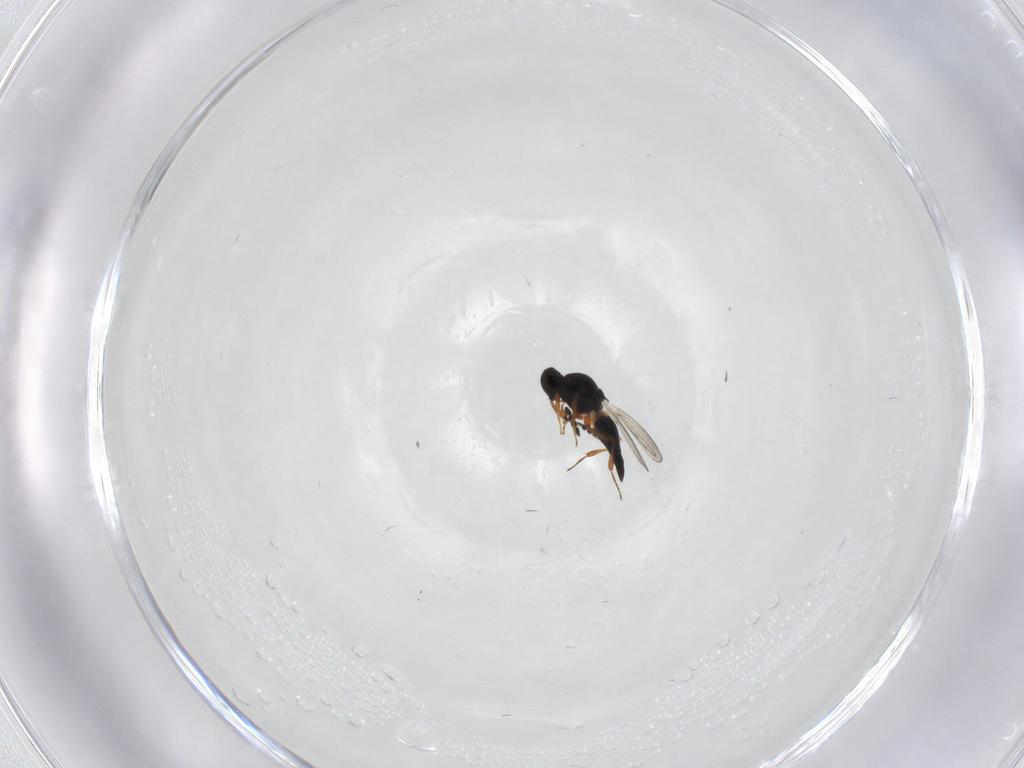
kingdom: Animalia
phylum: Arthropoda
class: Insecta
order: Hymenoptera
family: Platygastridae
